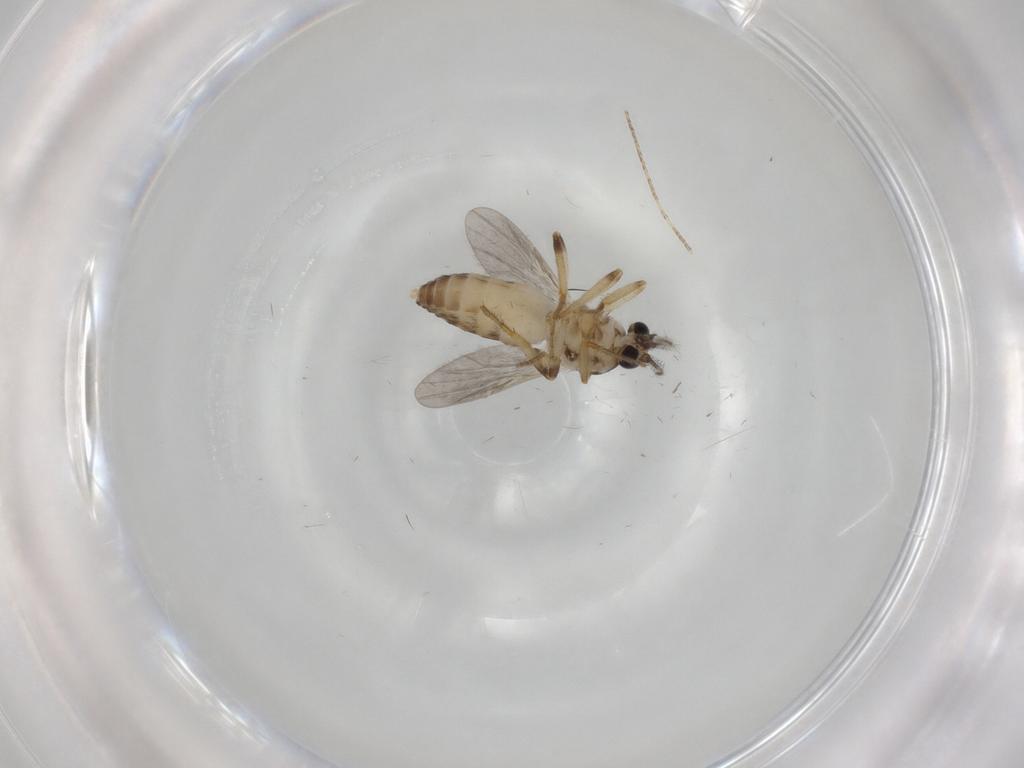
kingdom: Animalia
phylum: Arthropoda
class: Insecta
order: Diptera
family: Ceratopogonidae
